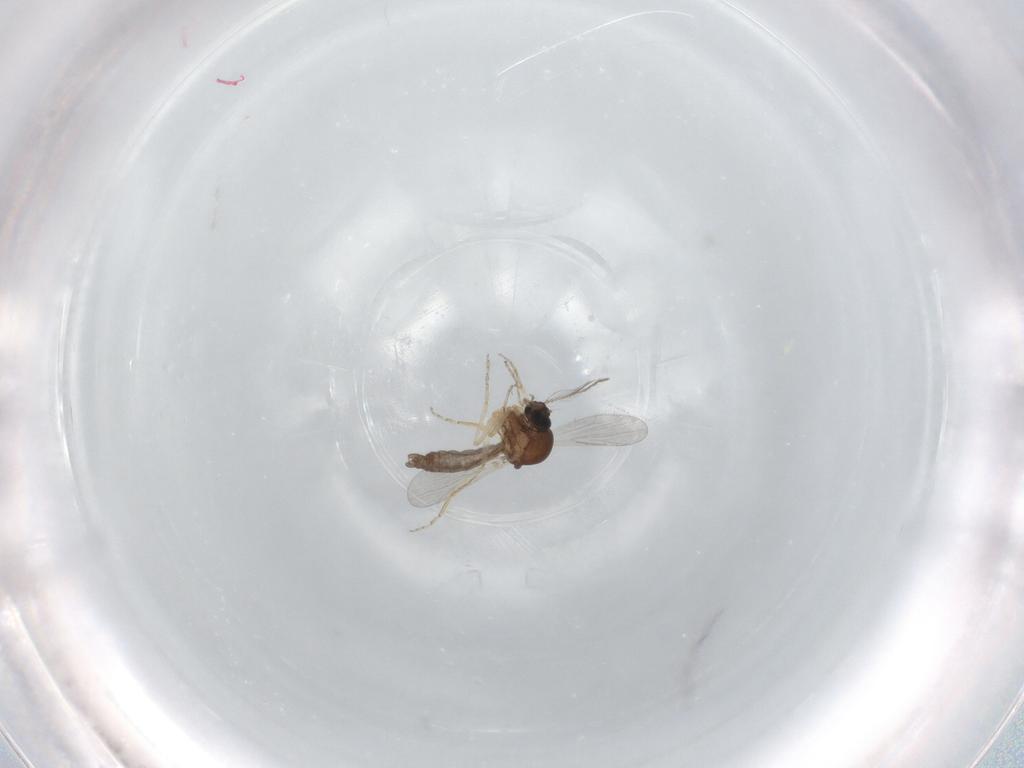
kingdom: Animalia
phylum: Arthropoda
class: Insecta
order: Diptera
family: Ceratopogonidae
